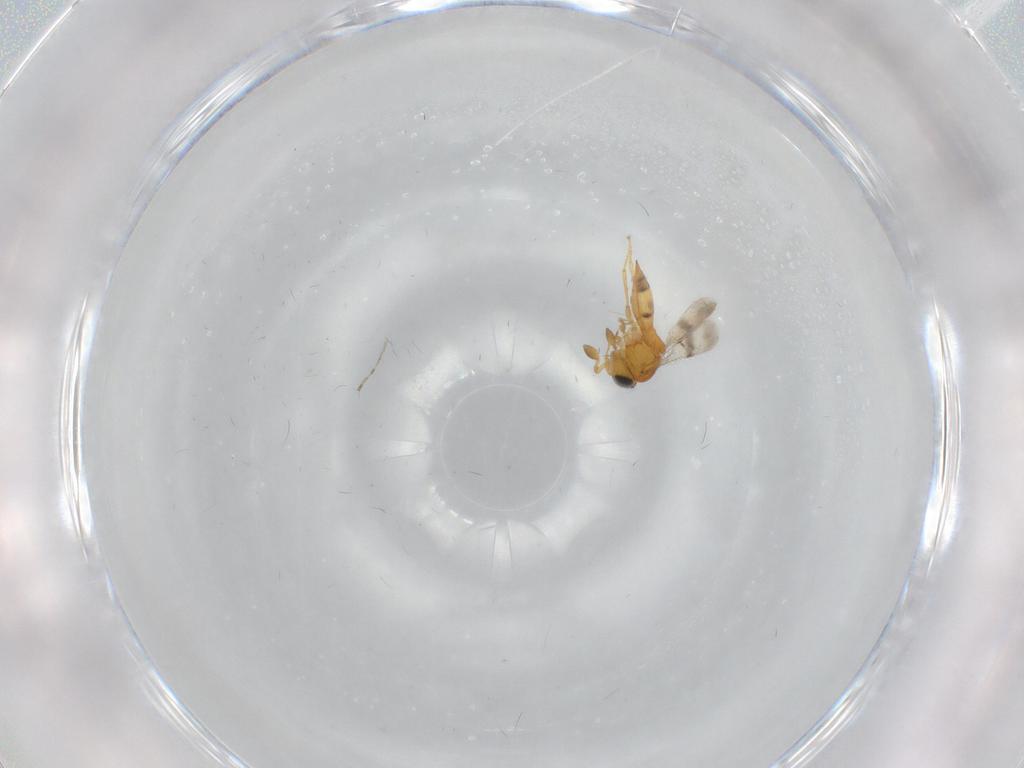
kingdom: Animalia
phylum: Arthropoda
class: Insecta
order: Hymenoptera
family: Scelionidae
